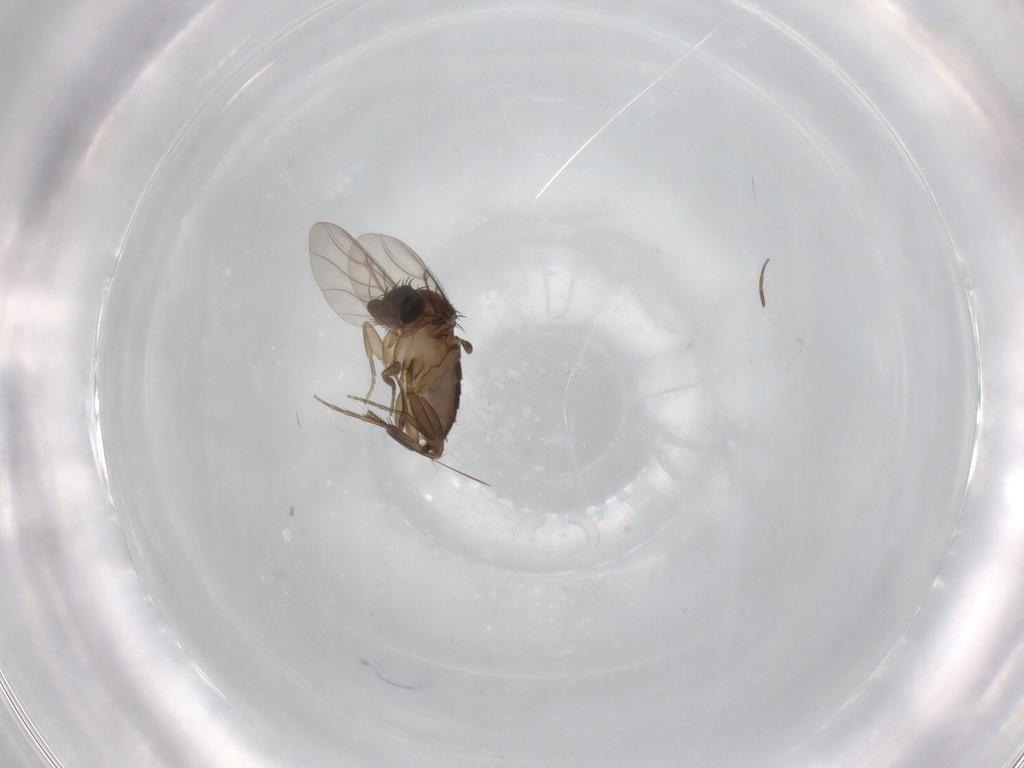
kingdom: Animalia
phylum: Arthropoda
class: Insecta
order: Diptera
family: Phoridae
